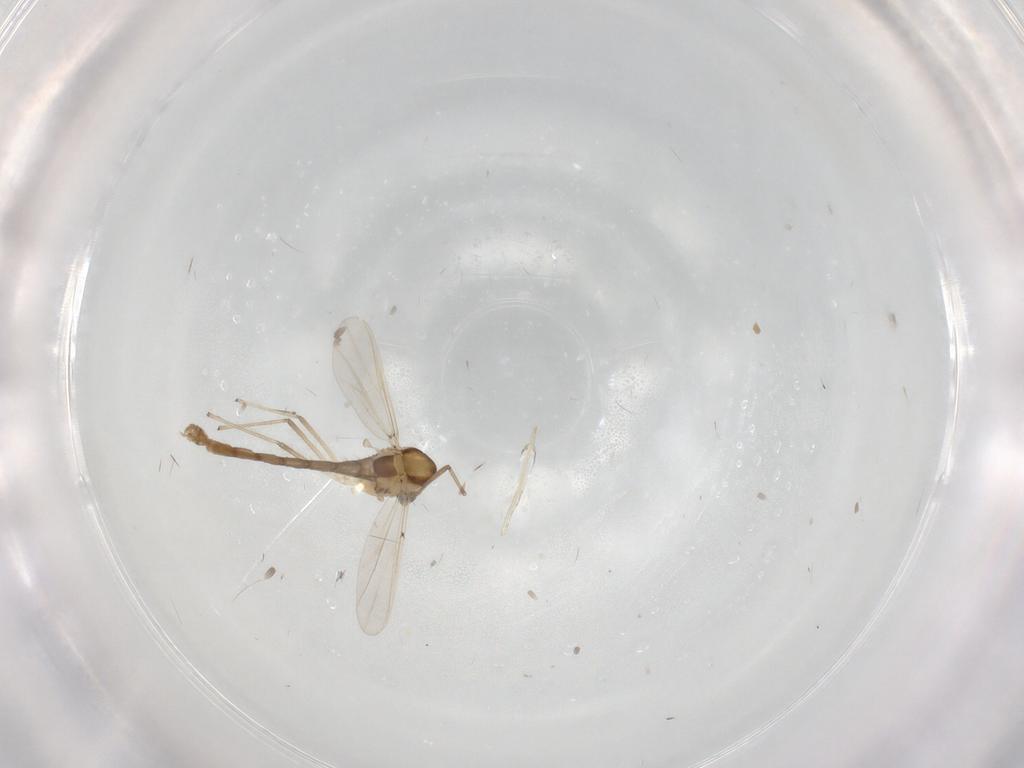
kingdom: Animalia
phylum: Arthropoda
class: Insecta
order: Diptera
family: Chironomidae
